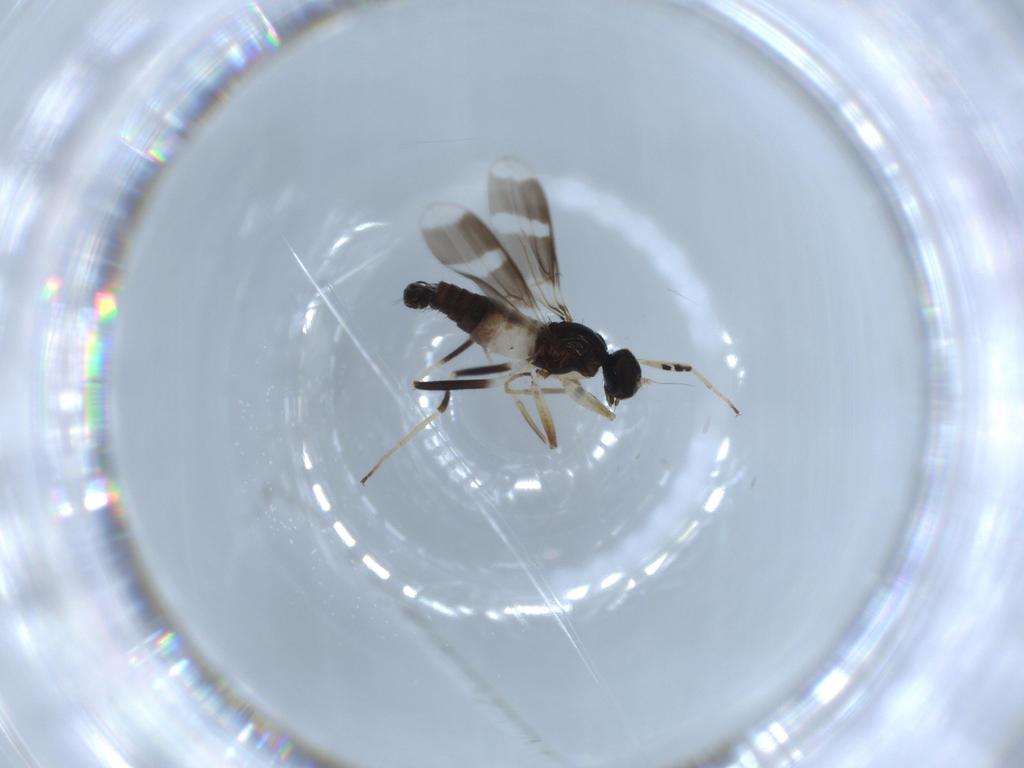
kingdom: Animalia
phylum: Arthropoda
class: Insecta
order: Diptera
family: Hybotidae
